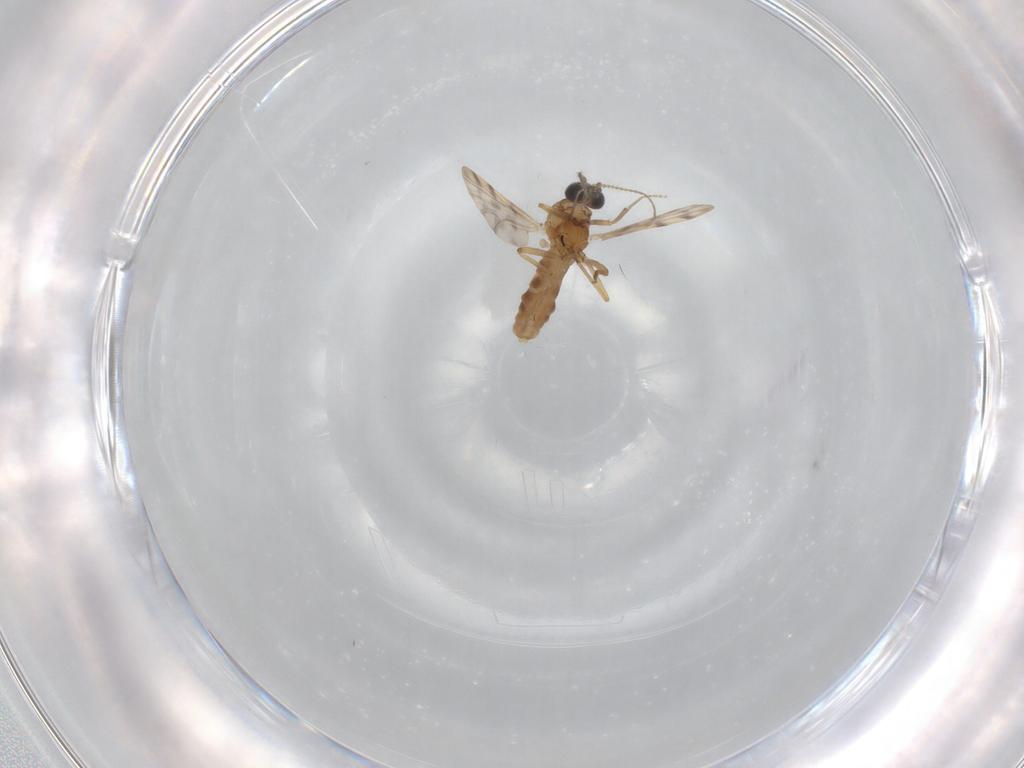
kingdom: Animalia
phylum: Arthropoda
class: Insecta
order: Diptera
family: Ceratopogonidae
